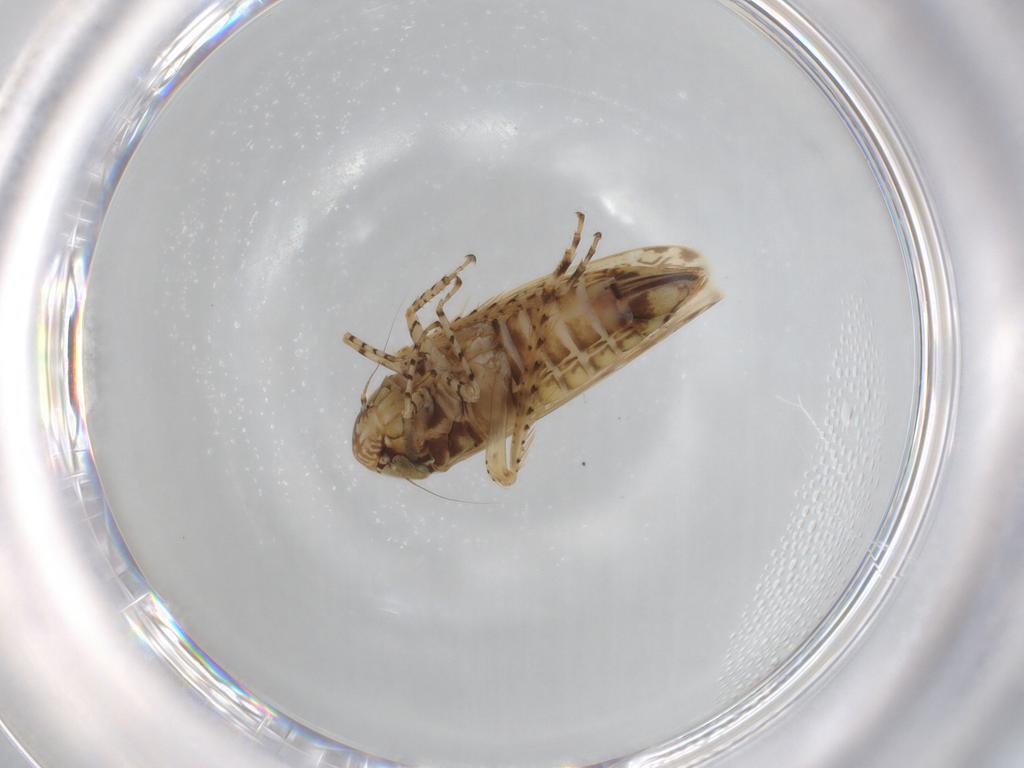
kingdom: Animalia
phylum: Arthropoda
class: Insecta
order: Hemiptera
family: Cicadellidae
